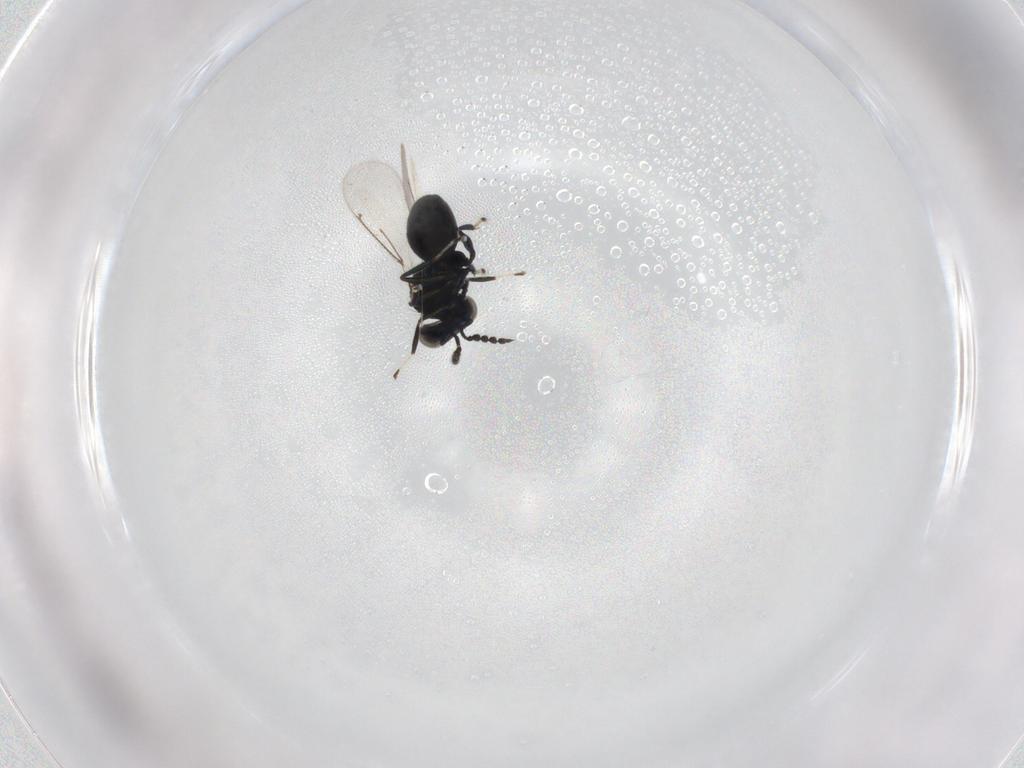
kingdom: Animalia
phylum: Arthropoda
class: Insecta
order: Hymenoptera
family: Eulophidae
